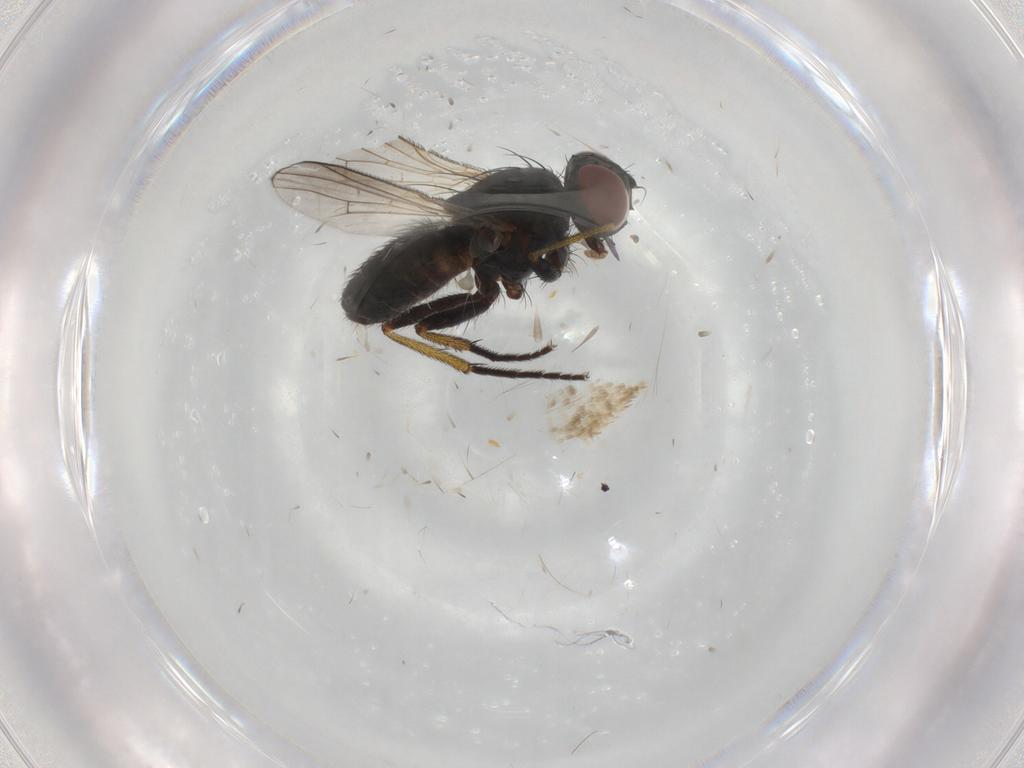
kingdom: Animalia
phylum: Arthropoda
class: Insecta
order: Diptera
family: Muscidae
